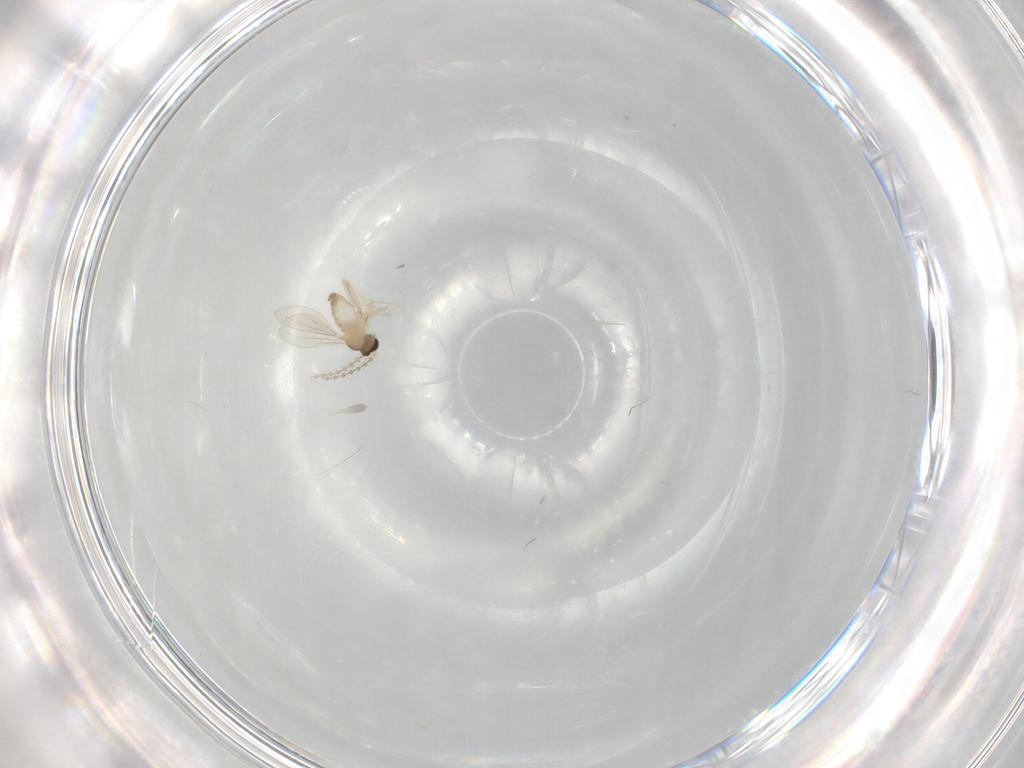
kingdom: Animalia
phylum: Arthropoda
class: Insecta
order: Diptera
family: Cecidomyiidae
